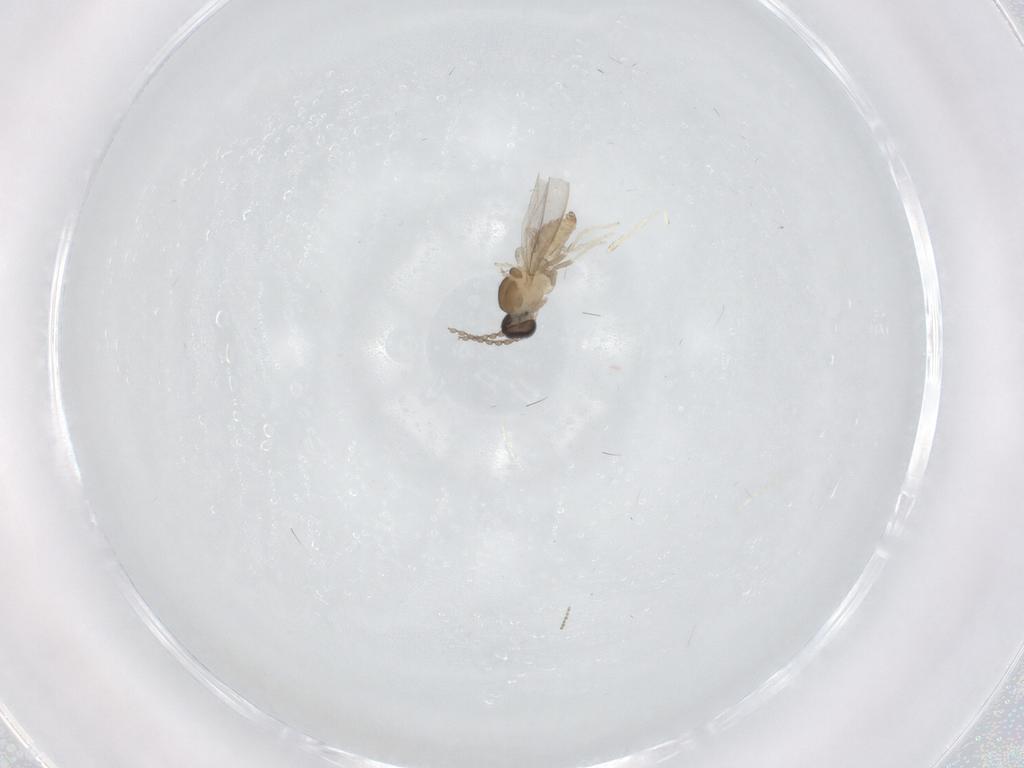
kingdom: Animalia
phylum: Arthropoda
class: Insecta
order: Diptera
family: Cecidomyiidae
